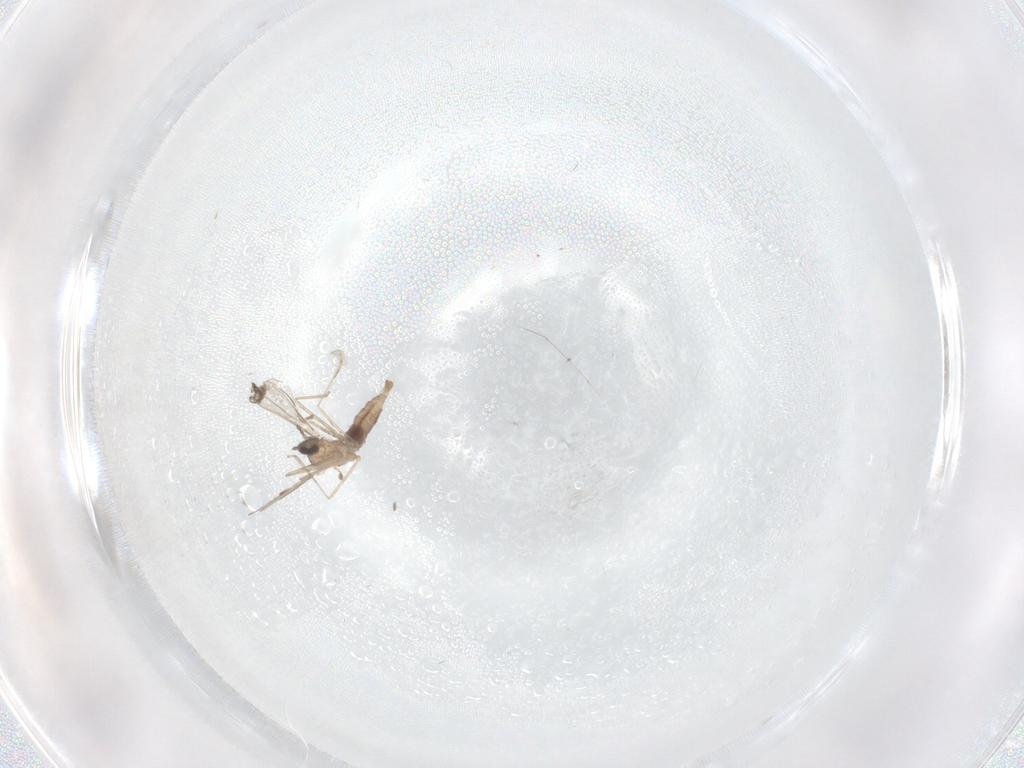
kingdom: Animalia
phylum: Arthropoda
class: Insecta
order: Diptera
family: Cecidomyiidae
